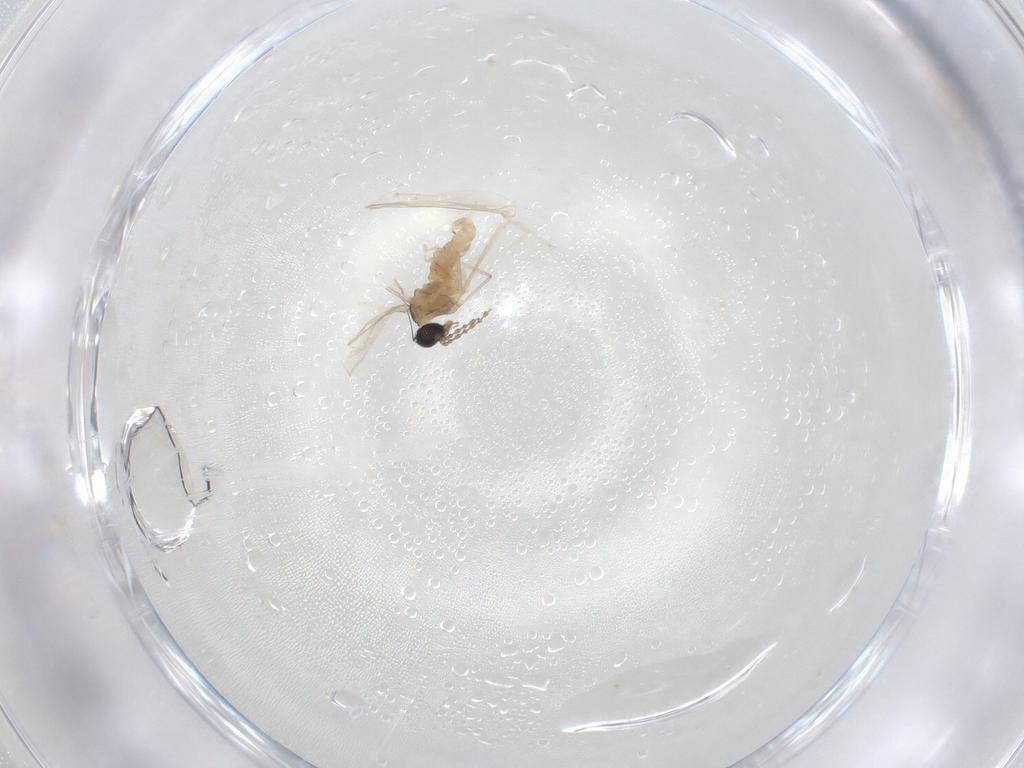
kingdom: Animalia
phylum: Arthropoda
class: Insecta
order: Diptera
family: Cecidomyiidae
